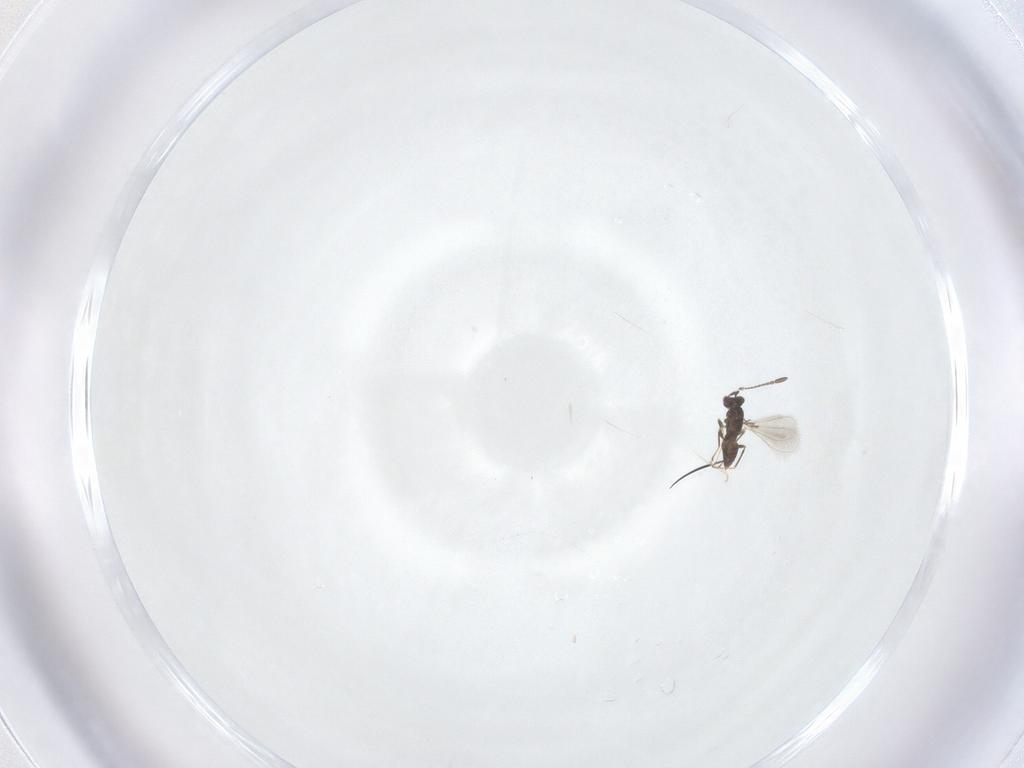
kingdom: Animalia
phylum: Arthropoda
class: Insecta
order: Hymenoptera
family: Mymaridae
